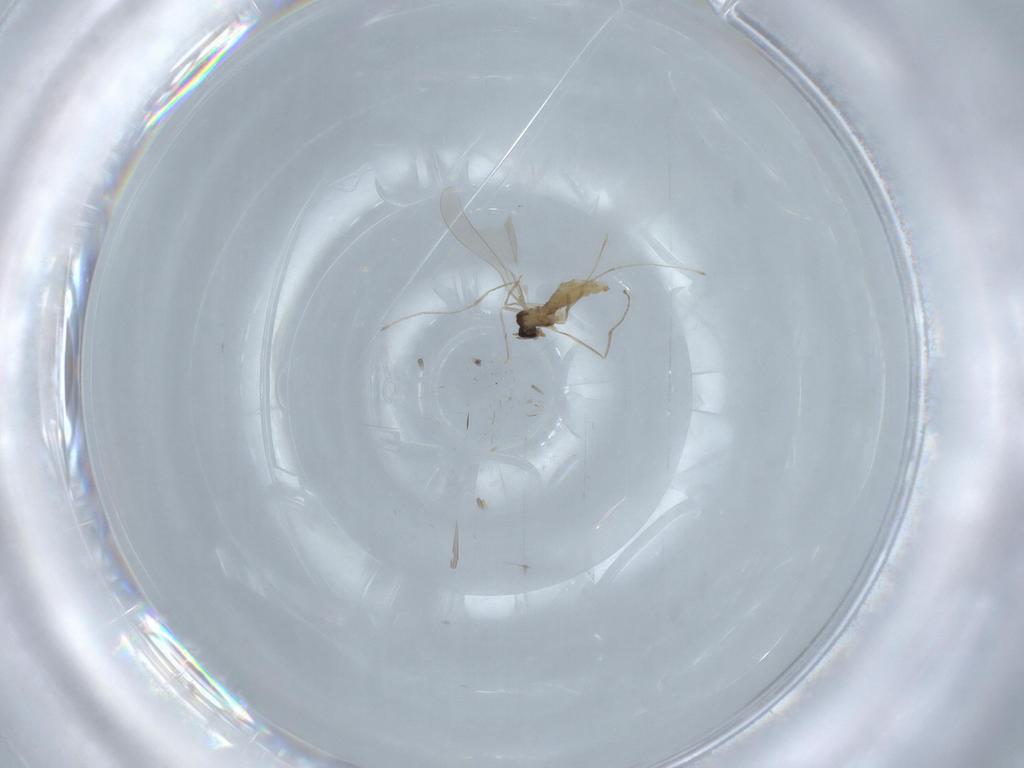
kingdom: Animalia
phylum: Arthropoda
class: Insecta
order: Diptera
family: Cecidomyiidae
